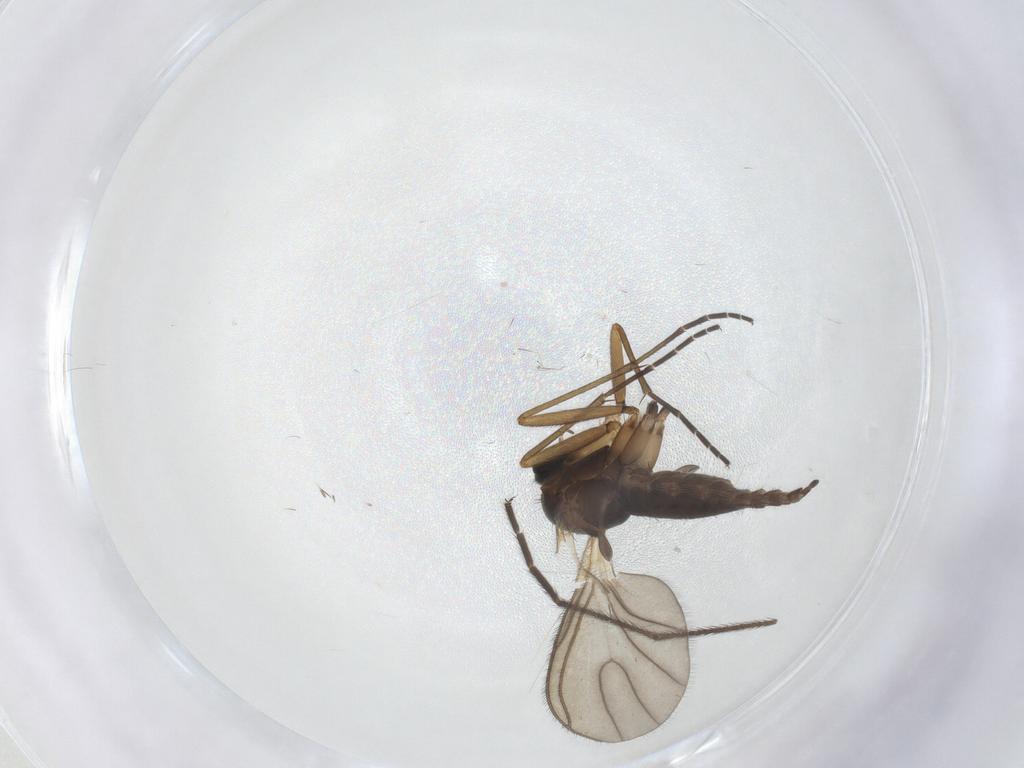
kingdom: Animalia
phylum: Arthropoda
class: Insecta
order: Diptera
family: Sciaridae
